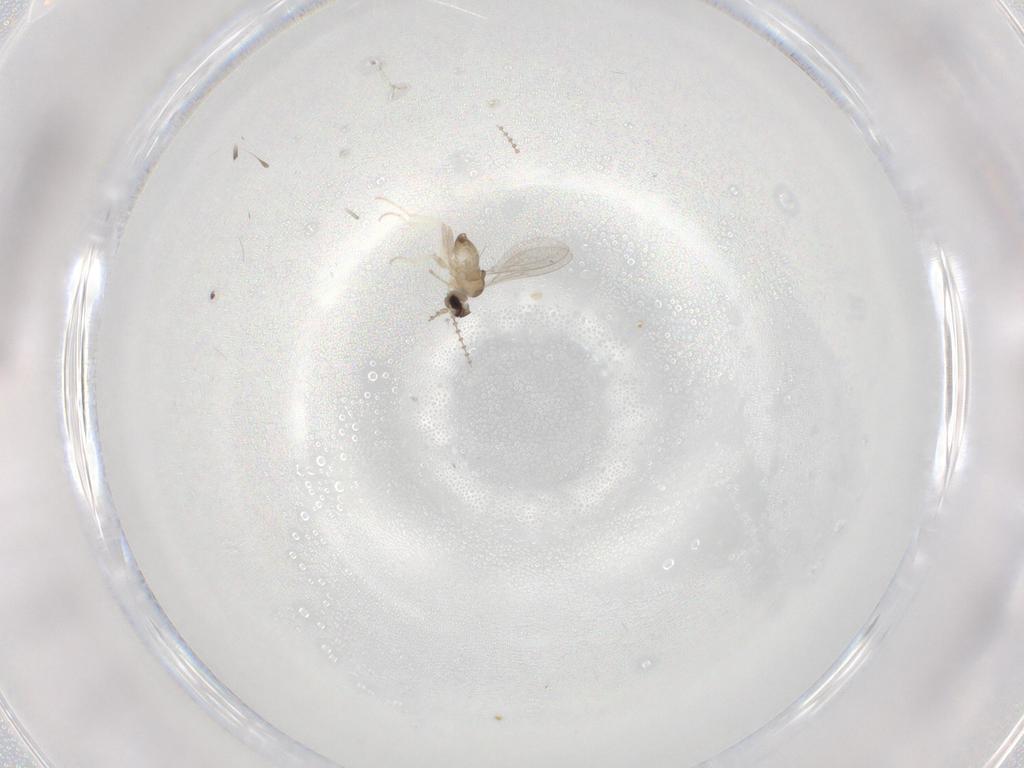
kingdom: Animalia
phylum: Arthropoda
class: Insecta
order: Diptera
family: Cecidomyiidae
